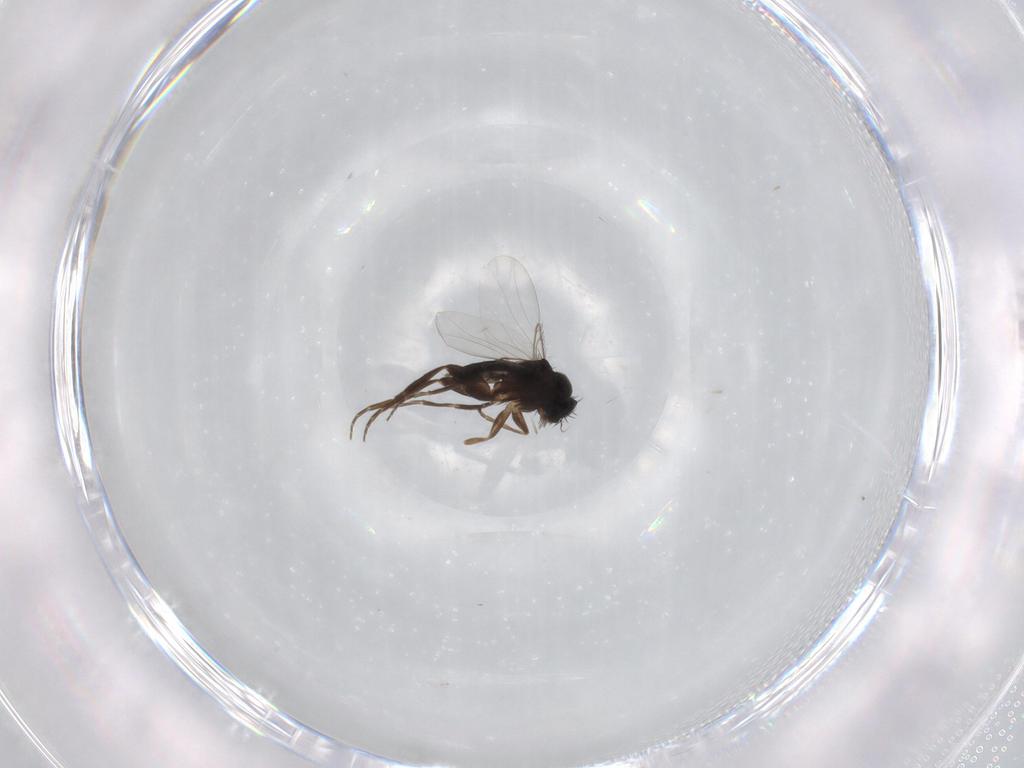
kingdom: Animalia
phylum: Arthropoda
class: Insecta
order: Diptera
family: Phoridae
